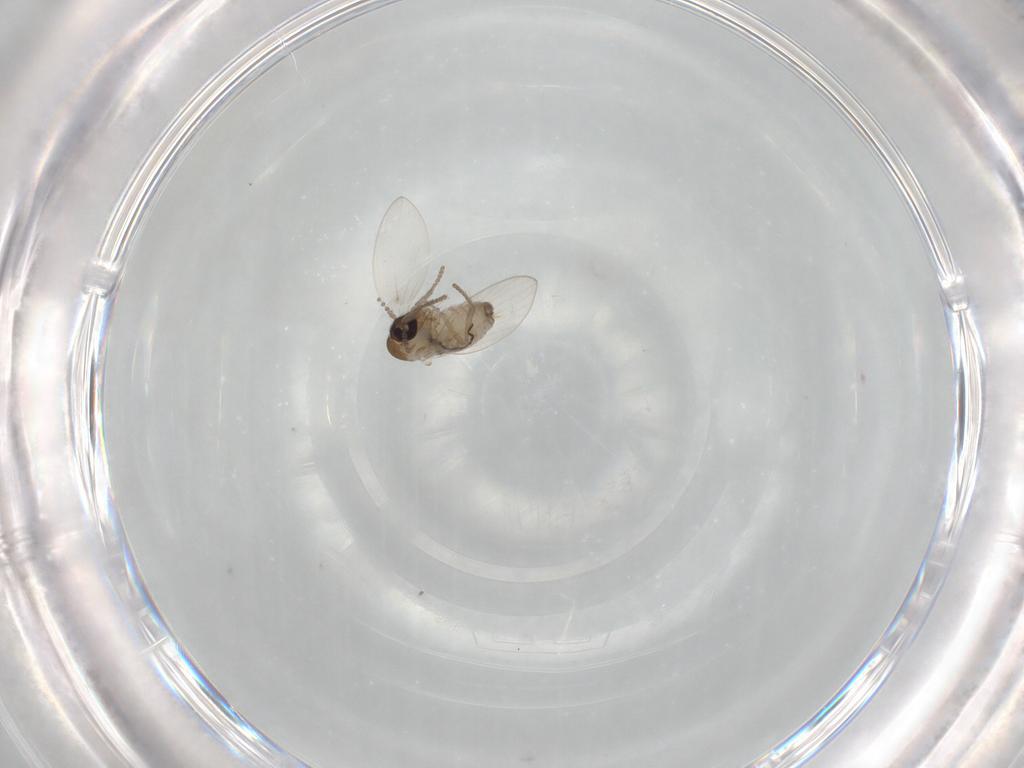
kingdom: Animalia
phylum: Arthropoda
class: Insecta
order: Diptera
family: Psychodidae
